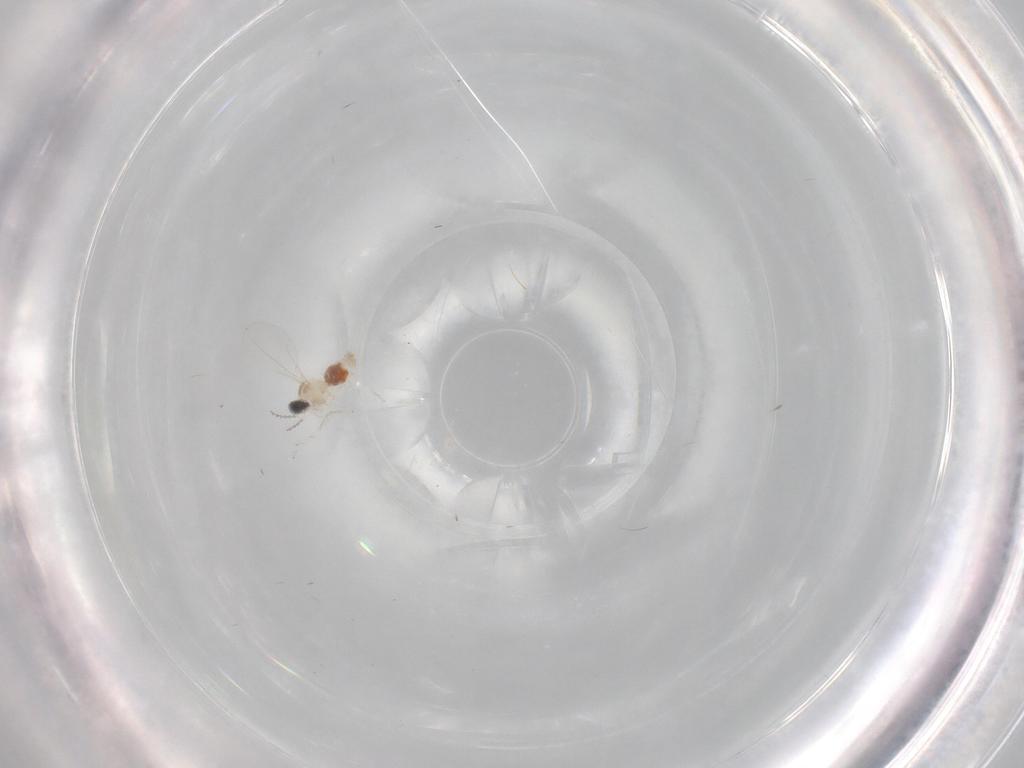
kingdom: Animalia
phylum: Arthropoda
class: Insecta
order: Diptera
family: Cecidomyiidae
